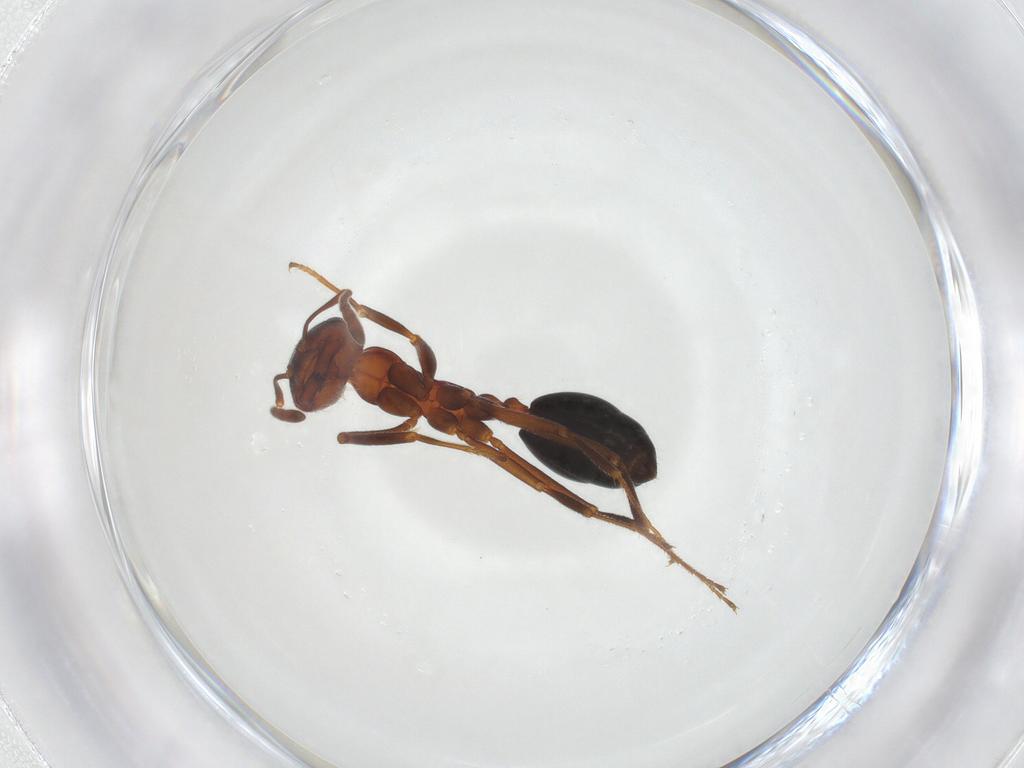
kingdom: Animalia
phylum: Arthropoda
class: Insecta
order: Hymenoptera
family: Formicidae
